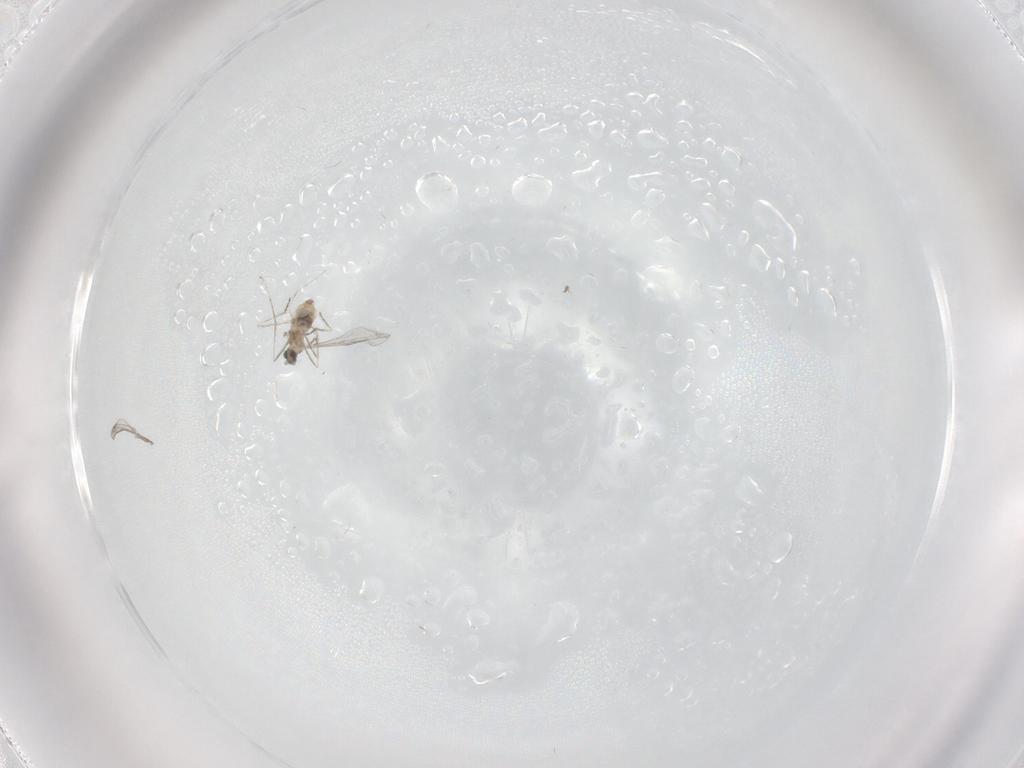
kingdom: Animalia
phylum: Arthropoda
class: Insecta
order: Diptera
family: Cecidomyiidae
